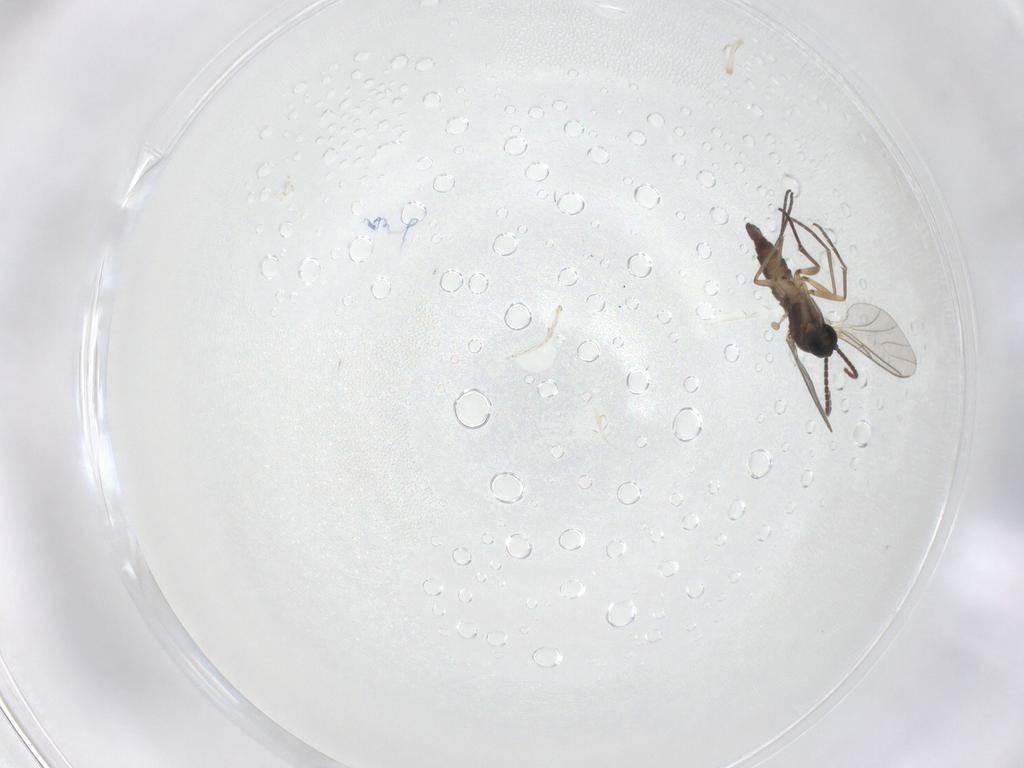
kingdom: Animalia
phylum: Arthropoda
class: Insecta
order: Diptera
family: Sciaridae
